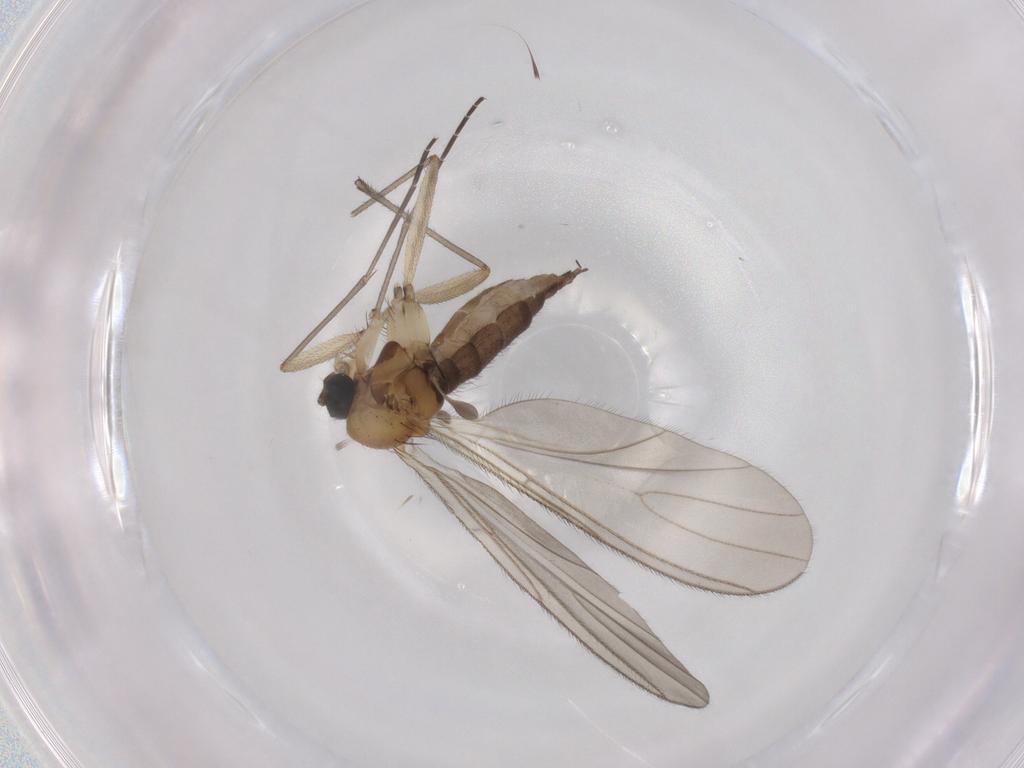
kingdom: Animalia
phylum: Arthropoda
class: Insecta
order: Diptera
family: Sciaridae
